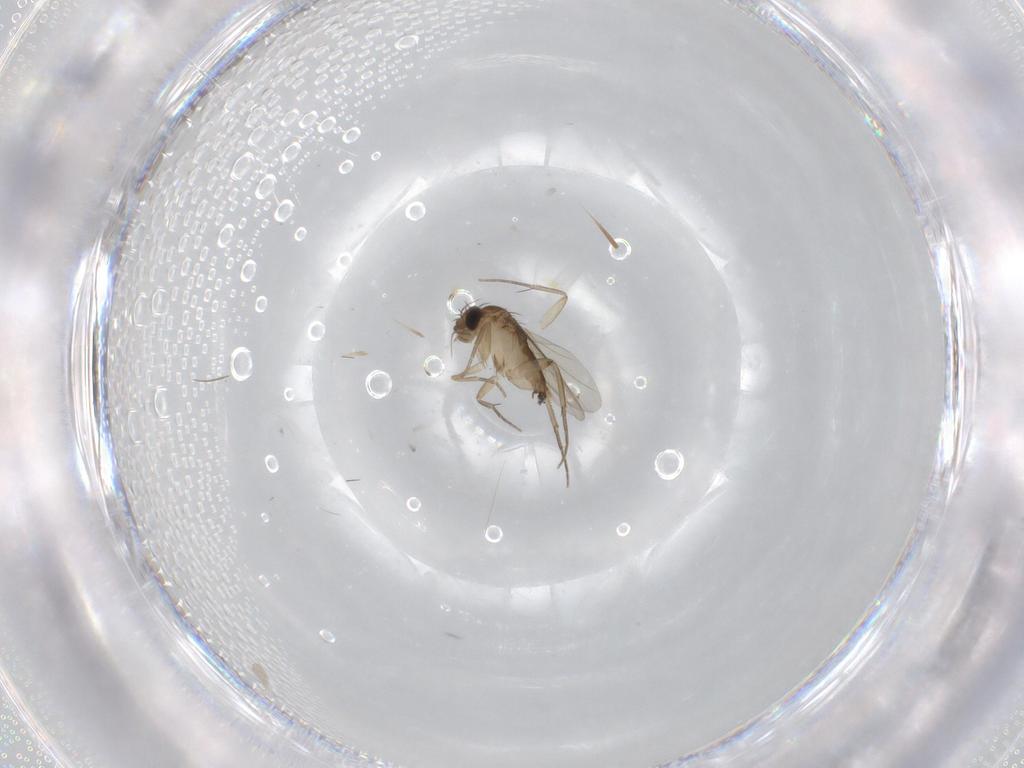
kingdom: Animalia
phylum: Arthropoda
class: Insecta
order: Diptera
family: Phoridae
